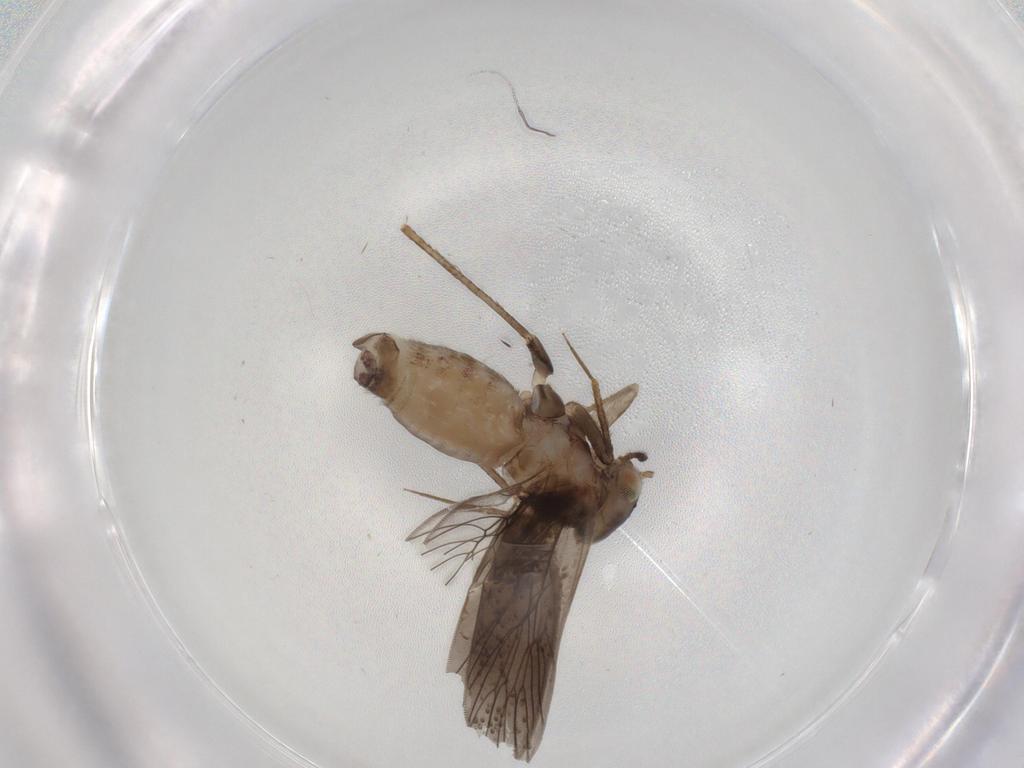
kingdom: Animalia
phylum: Arthropoda
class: Insecta
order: Psocodea
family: Lepidopsocidae
